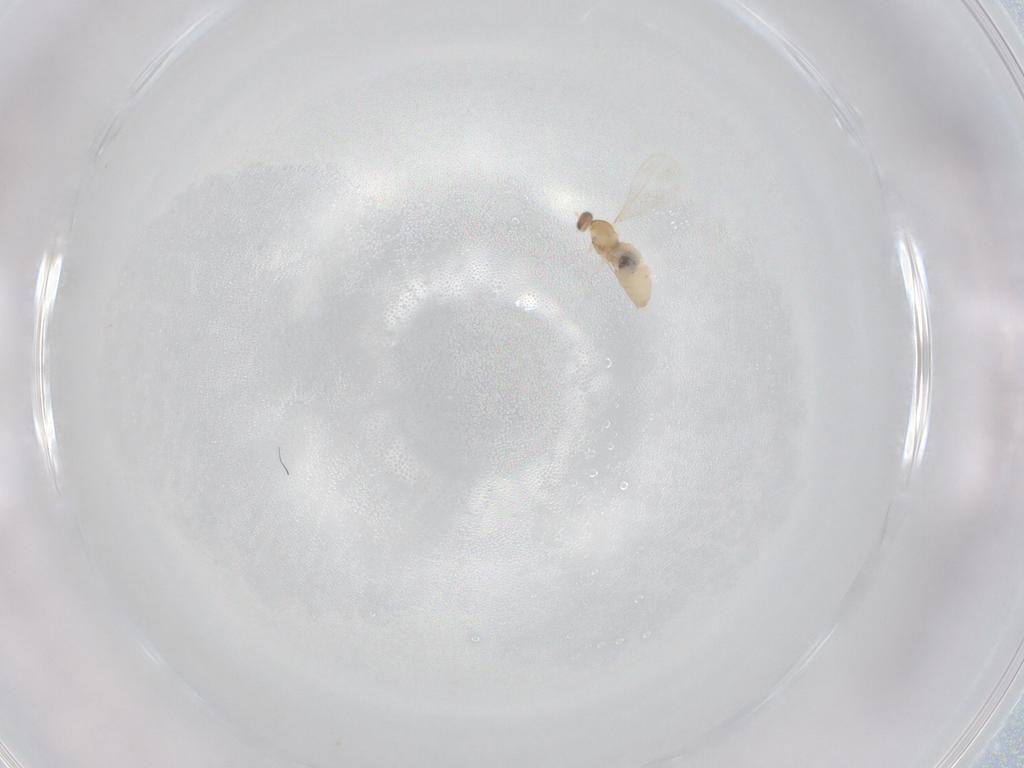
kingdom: Animalia
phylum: Arthropoda
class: Insecta
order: Diptera
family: Cecidomyiidae
